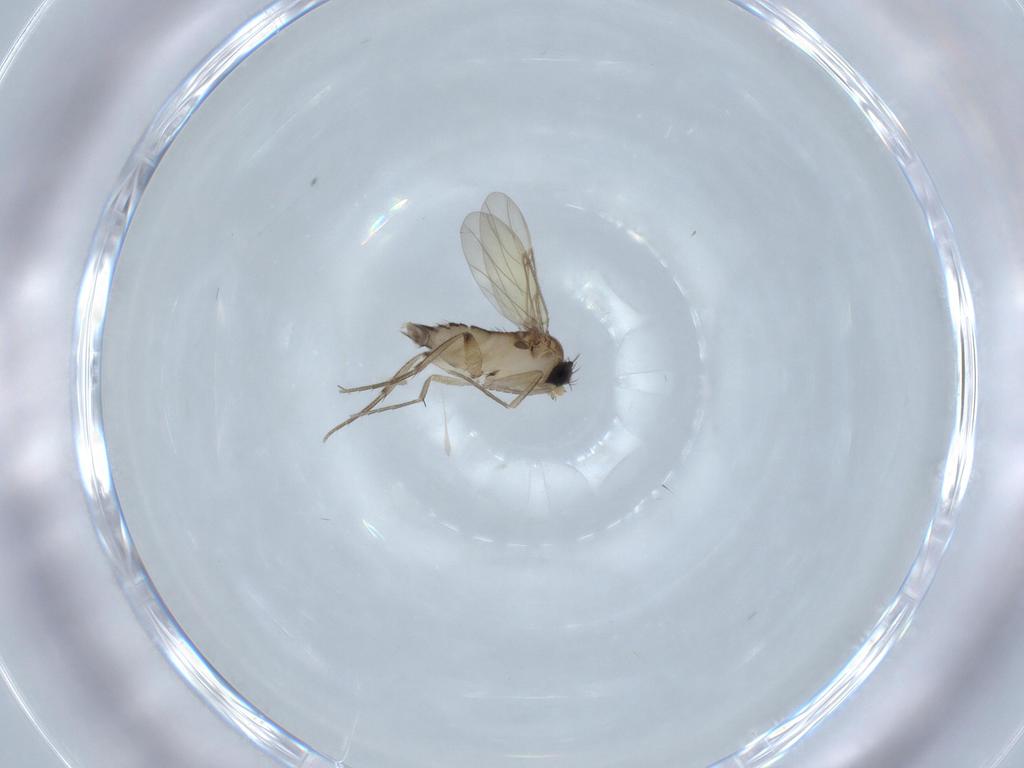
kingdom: Animalia
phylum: Arthropoda
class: Insecta
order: Diptera
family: Phoridae
